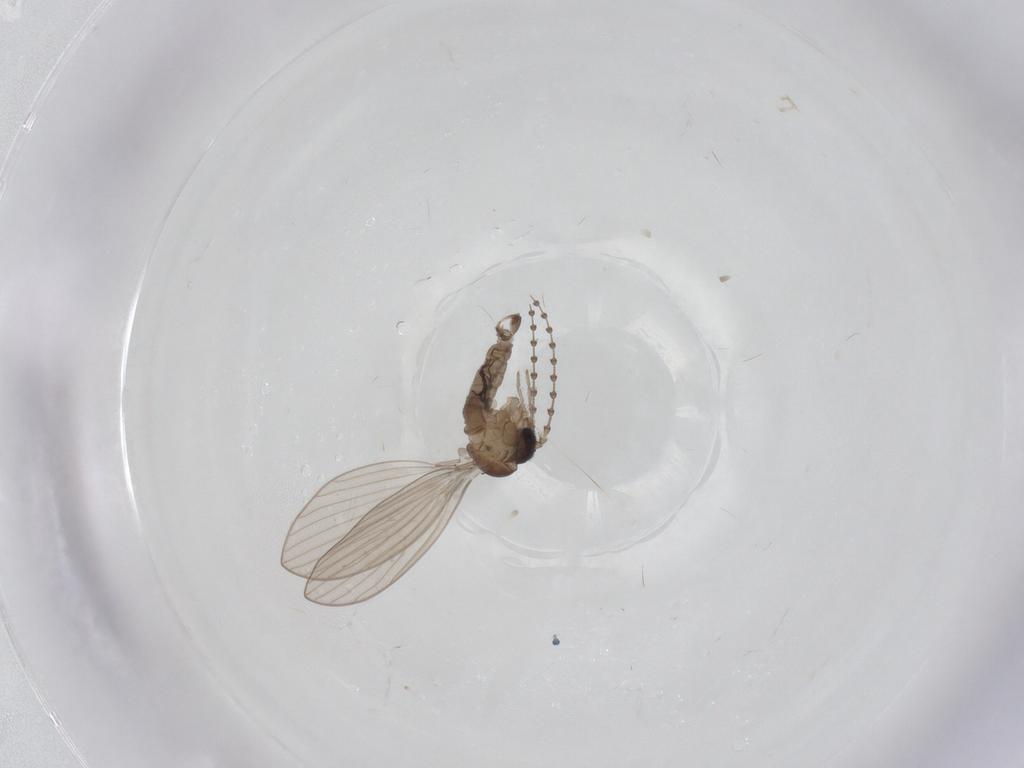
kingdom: Animalia
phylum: Arthropoda
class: Insecta
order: Diptera
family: Psychodidae
